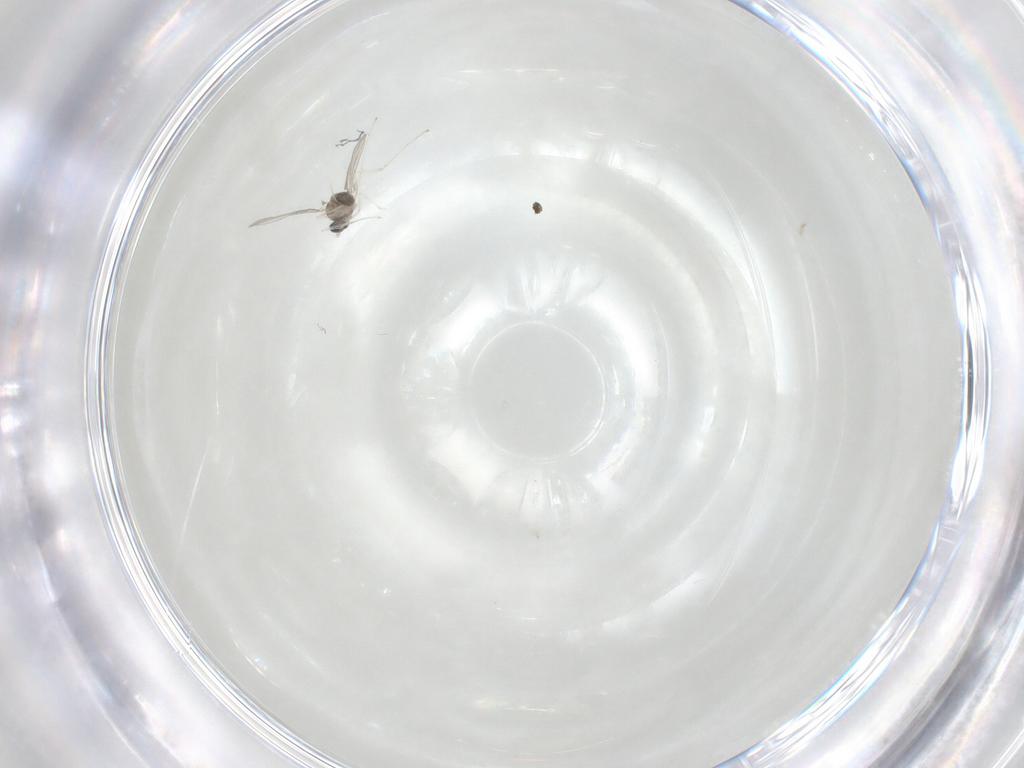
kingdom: Animalia
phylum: Arthropoda
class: Insecta
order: Diptera
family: Cecidomyiidae
